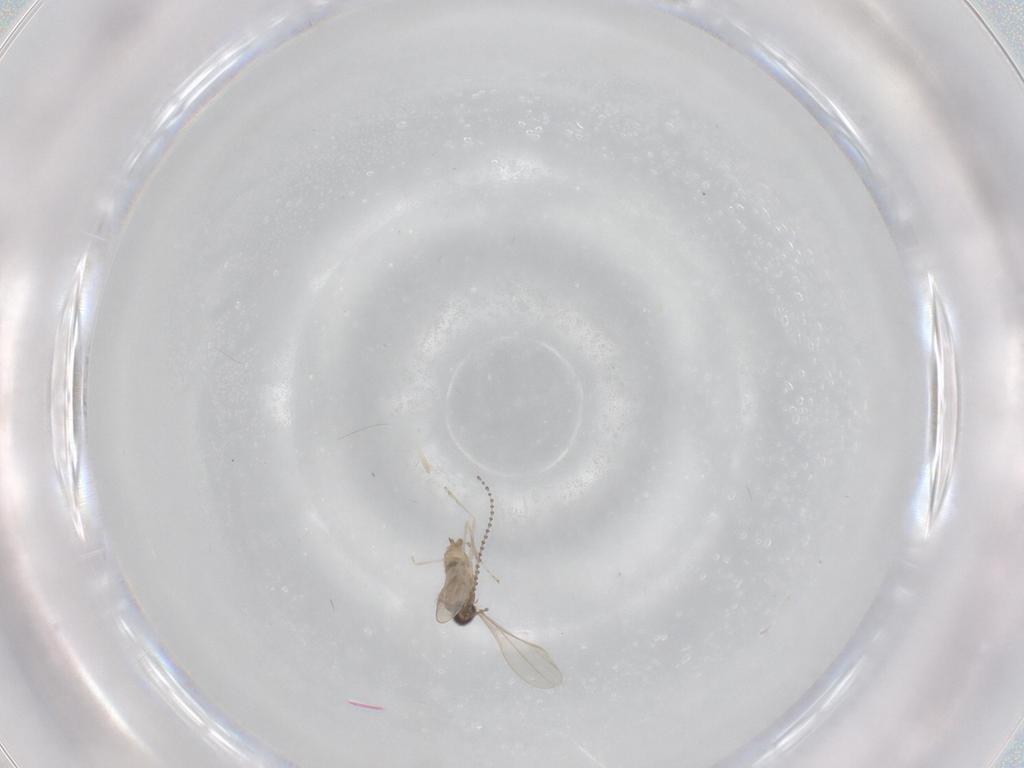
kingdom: Animalia
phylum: Arthropoda
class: Insecta
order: Diptera
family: Cecidomyiidae
